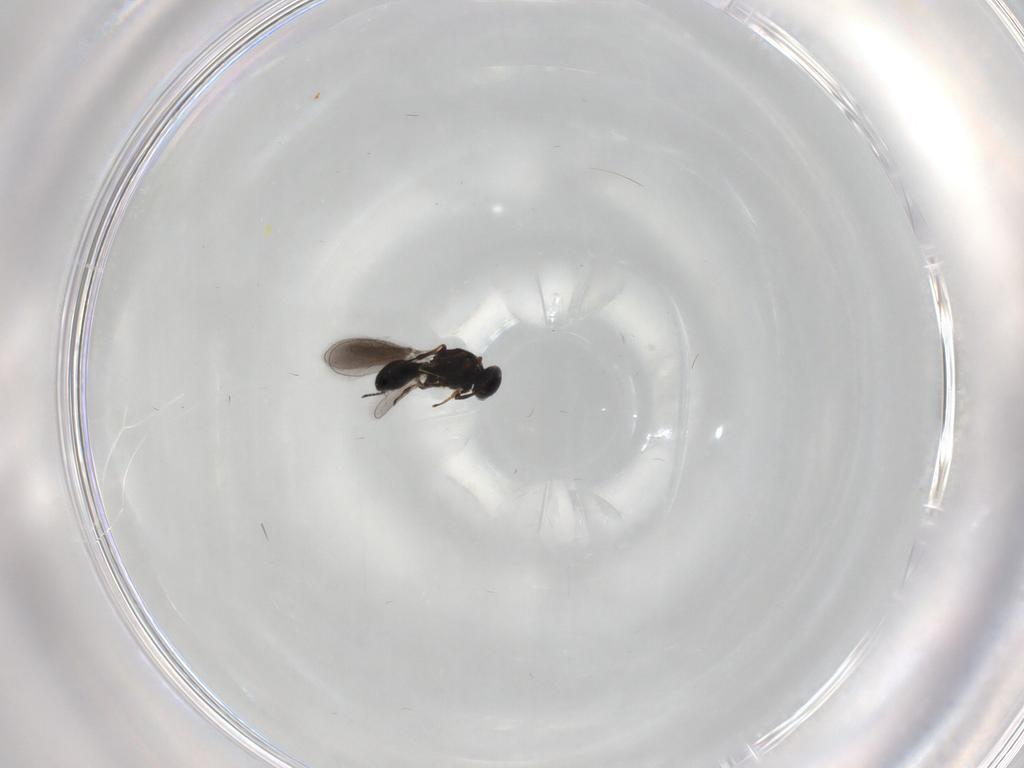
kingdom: Animalia
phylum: Arthropoda
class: Insecta
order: Hymenoptera
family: Platygastridae
